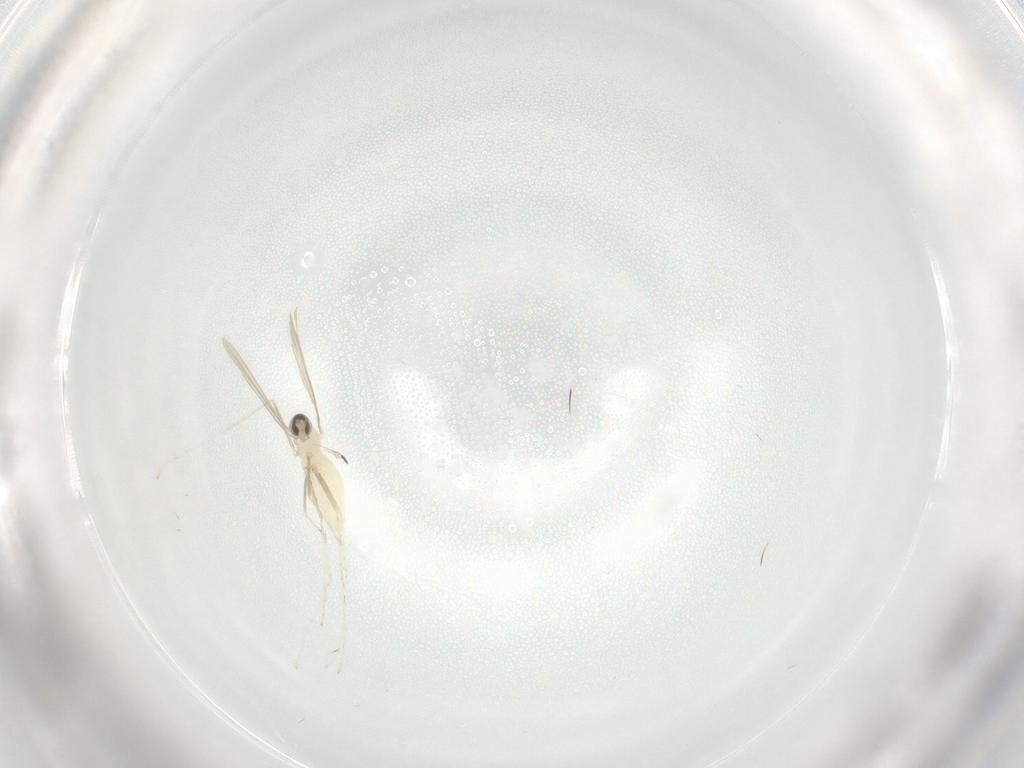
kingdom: Animalia
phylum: Arthropoda
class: Insecta
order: Diptera
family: Cecidomyiidae
